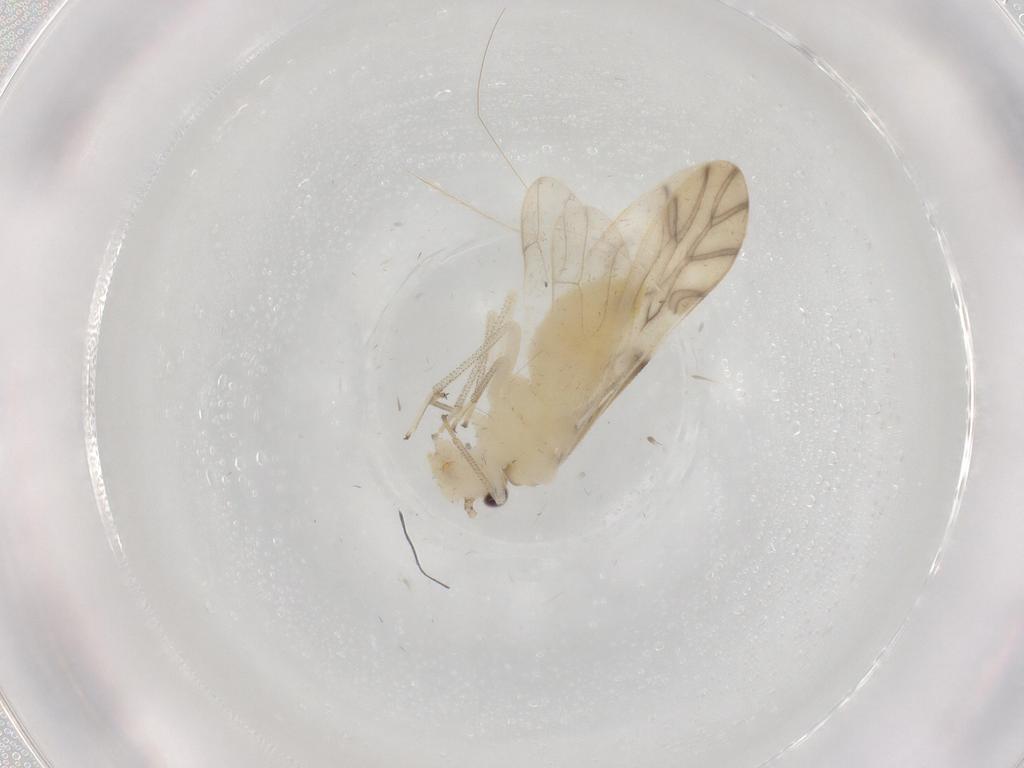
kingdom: Animalia
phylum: Arthropoda
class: Insecta
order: Psocodea
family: Caeciliusidae
